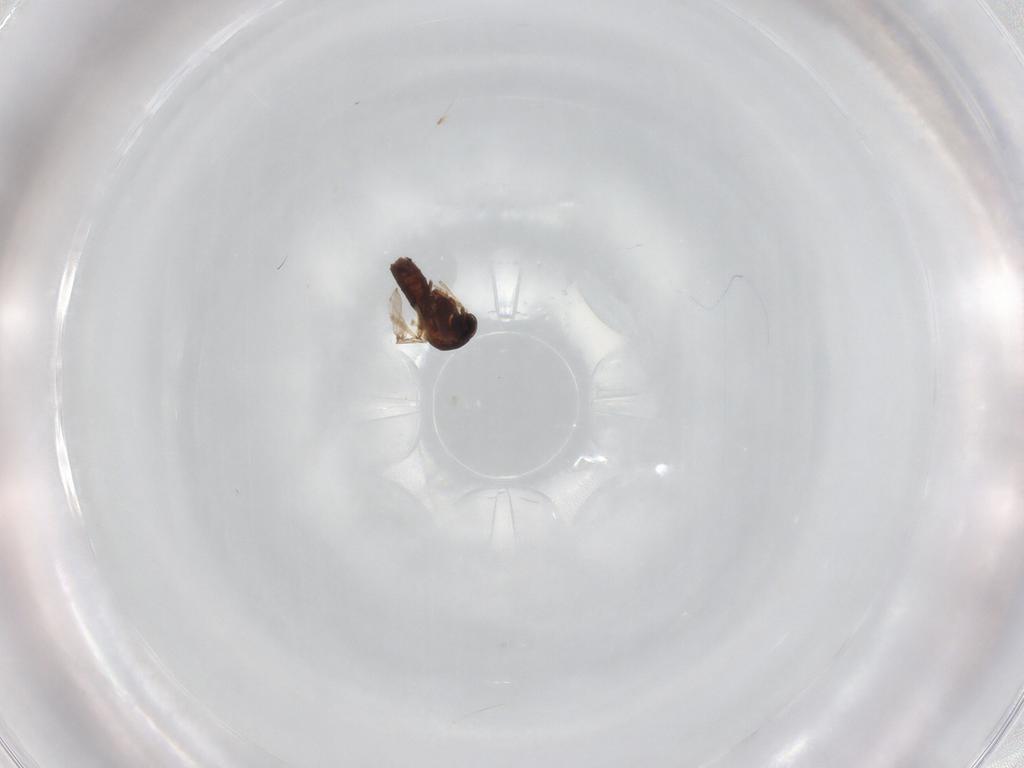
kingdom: Animalia
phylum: Arthropoda
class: Insecta
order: Diptera
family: Ceratopogonidae
